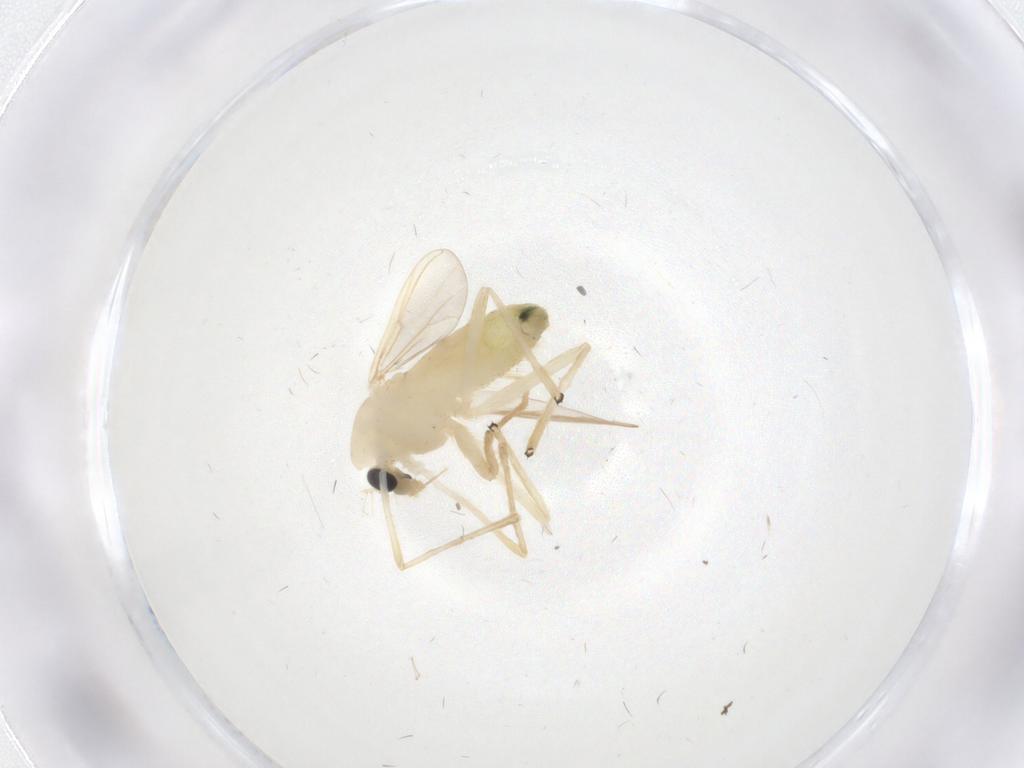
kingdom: Animalia
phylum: Arthropoda
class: Insecta
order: Diptera
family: Chironomidae
